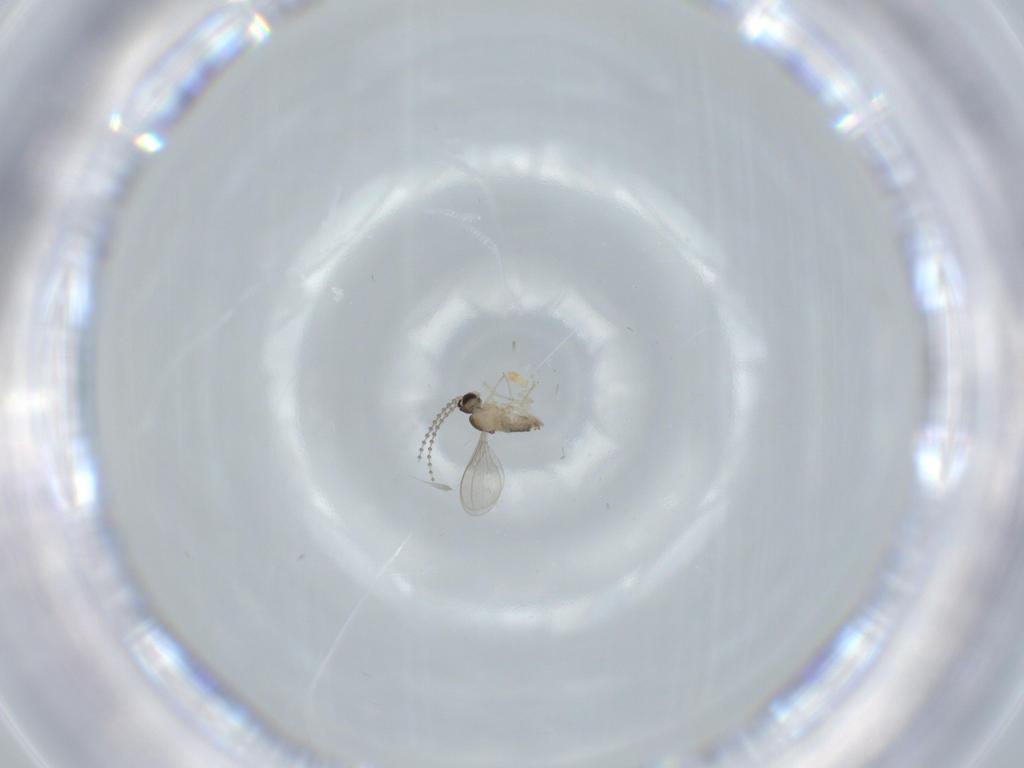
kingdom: Animalia
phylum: Arthropoda
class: Insecta
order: Diptera
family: Cecidomyiidae
